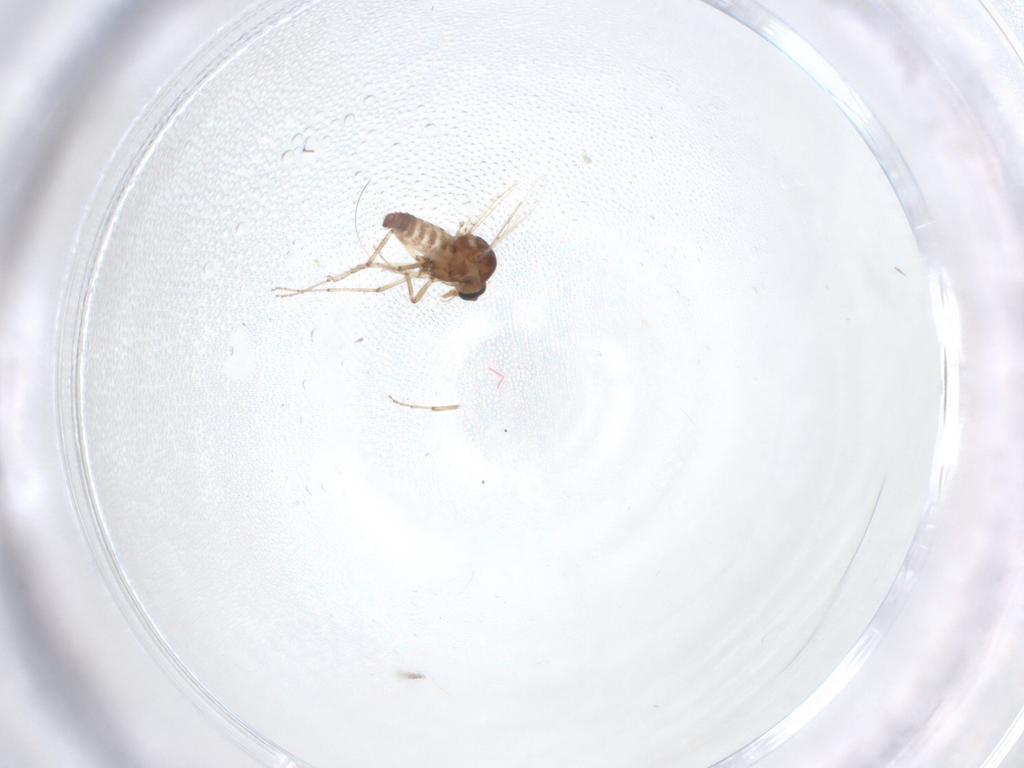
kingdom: Animalia
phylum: Arthropoda
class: Insecta
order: Diptera
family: Ceratopogonidae
